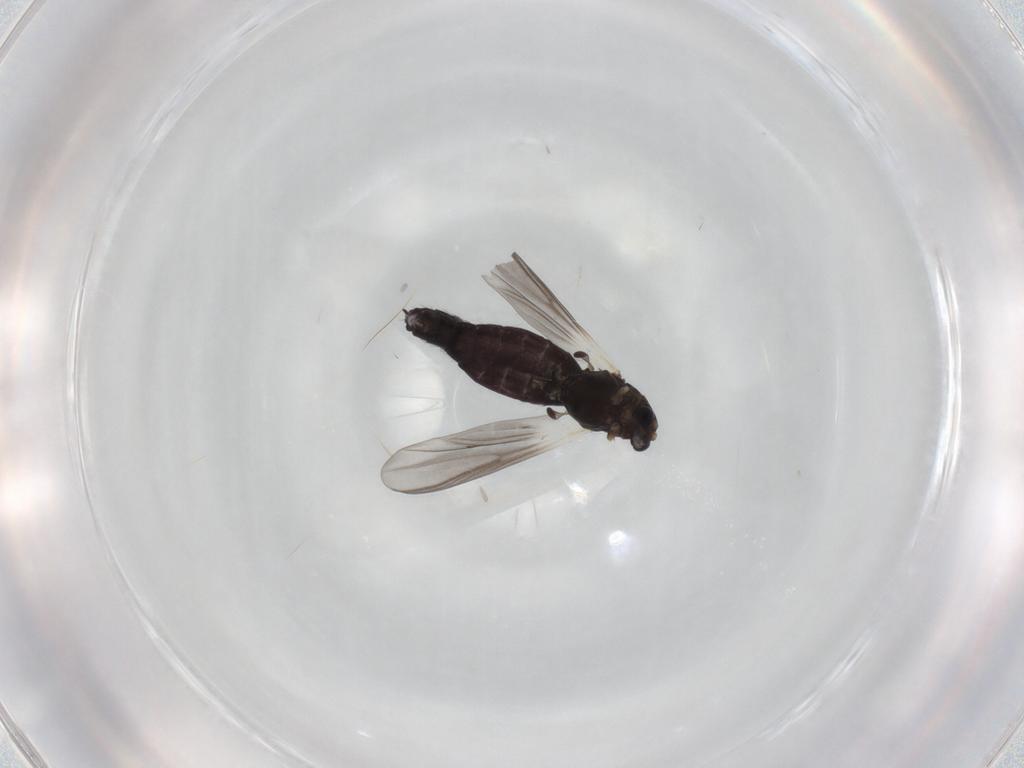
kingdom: Animalia
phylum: Arthropoda
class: Insecta
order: Diptera
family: Chironomidae
